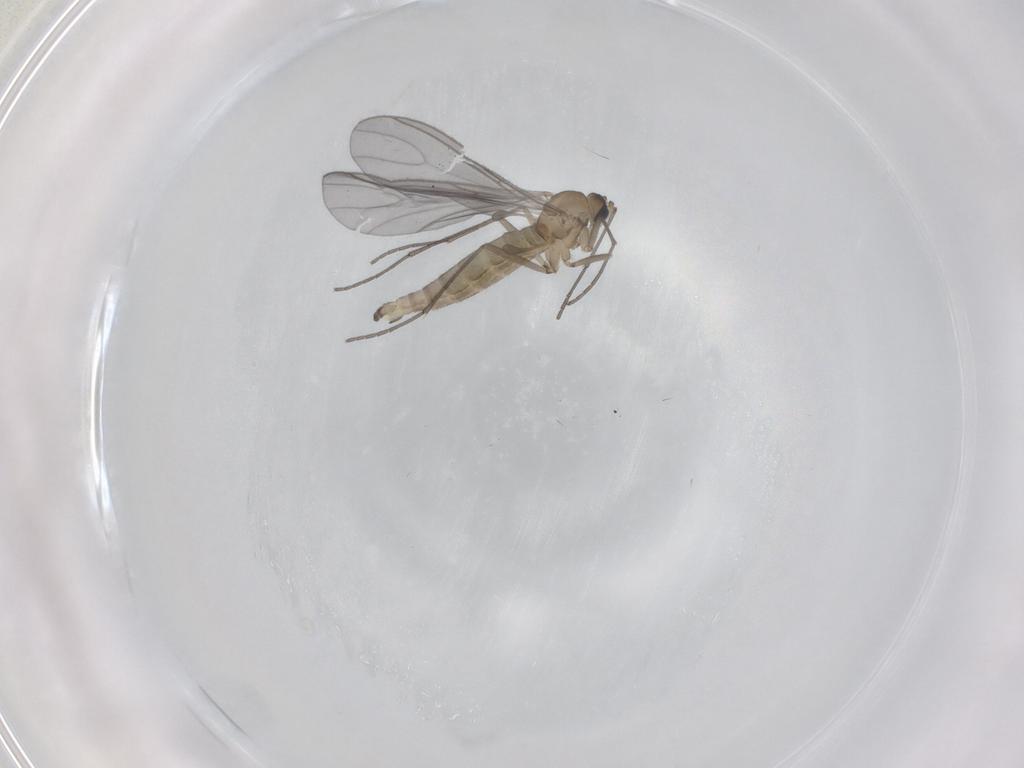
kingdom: Animalia
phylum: Arthropoda
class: Insecta
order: Diptera
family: Sciaridae
